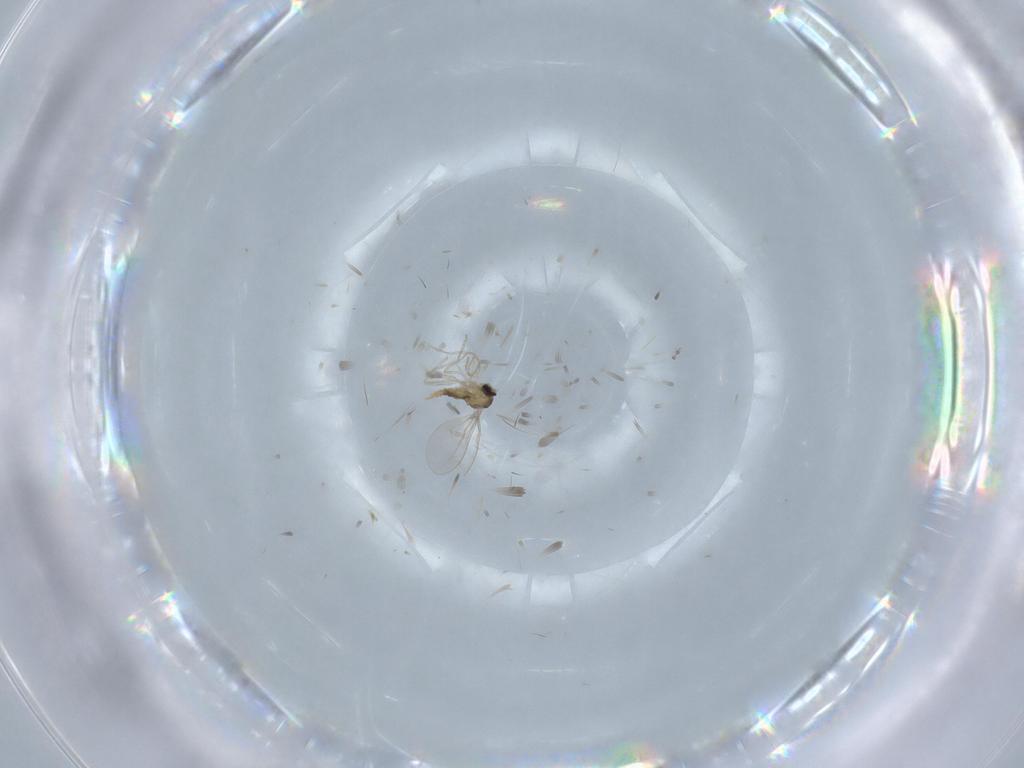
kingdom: Animalia
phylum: Arthropoda
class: Insecta
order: Diptera
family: Cecidomyiidae
